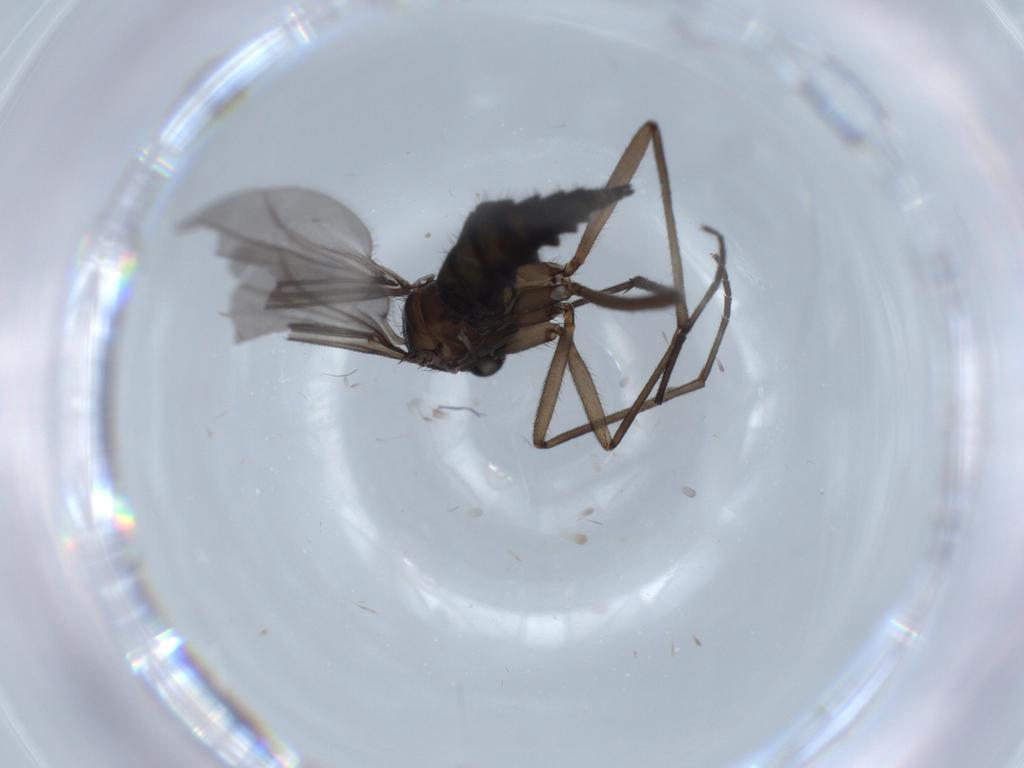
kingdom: Animalia
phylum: Arthropoda
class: Insecta
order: Diptera
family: Sciaridae
